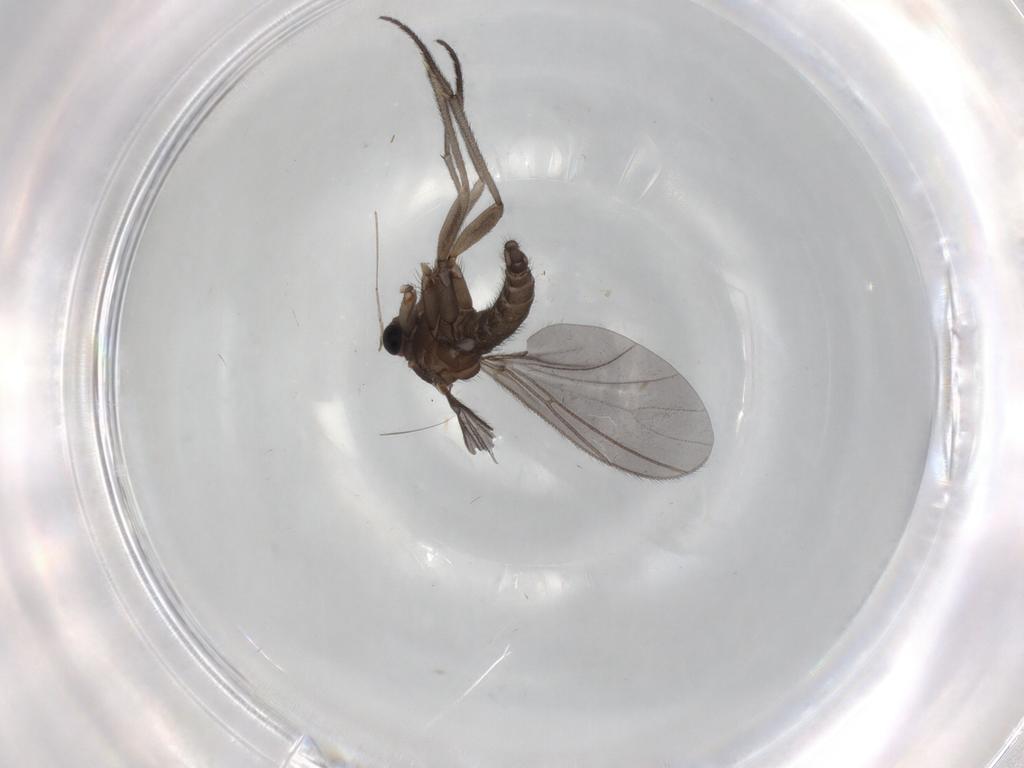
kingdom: Animalia
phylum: Arthropoda
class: Insecta
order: Diptera
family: Sciaridae
